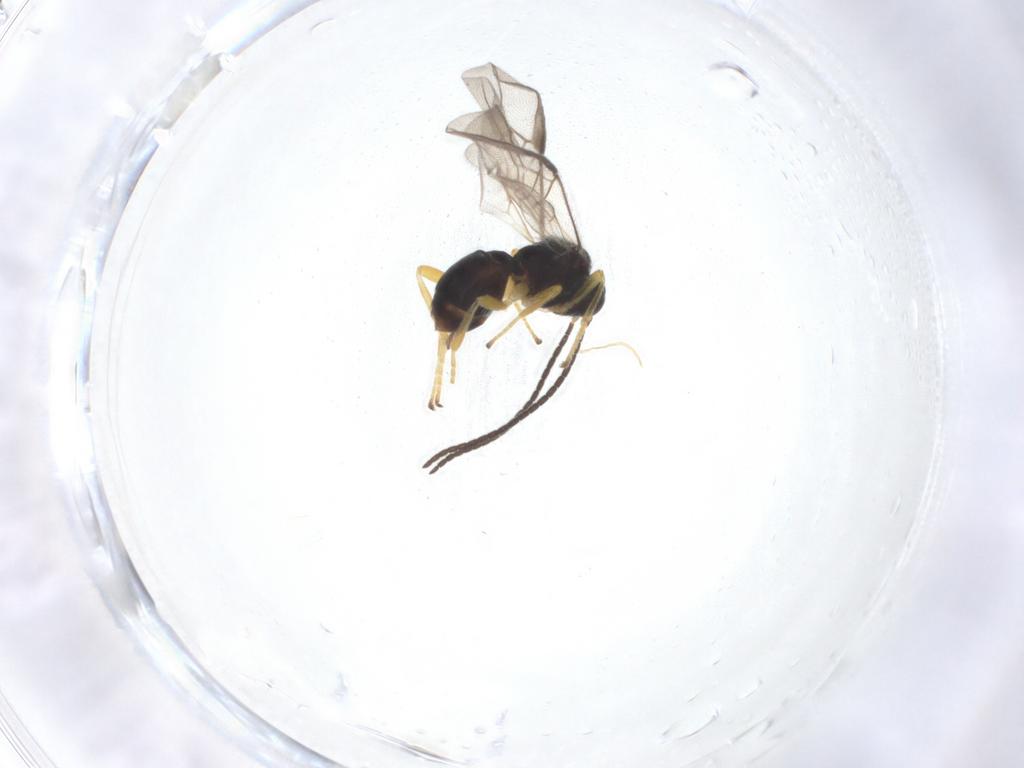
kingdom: Animalia
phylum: Arthropoda
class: Insecta
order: Hymenoptera
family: Braconidae
